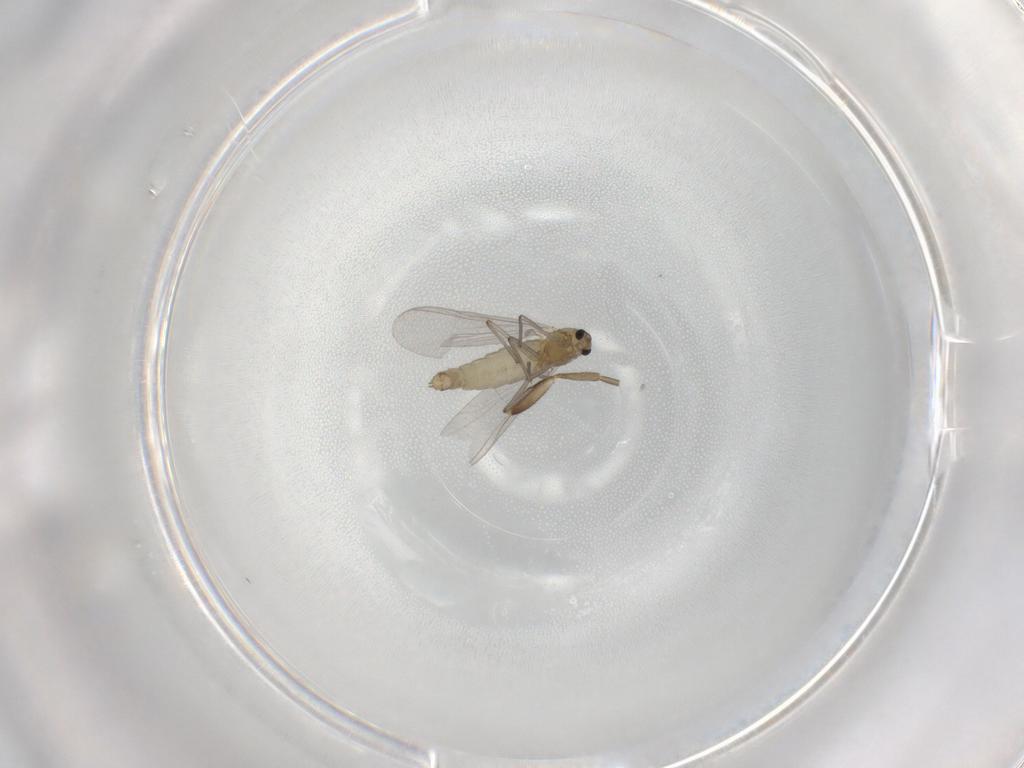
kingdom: Animalia
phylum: Arthropoda
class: Insecta
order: Diptera
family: Chironomidae
